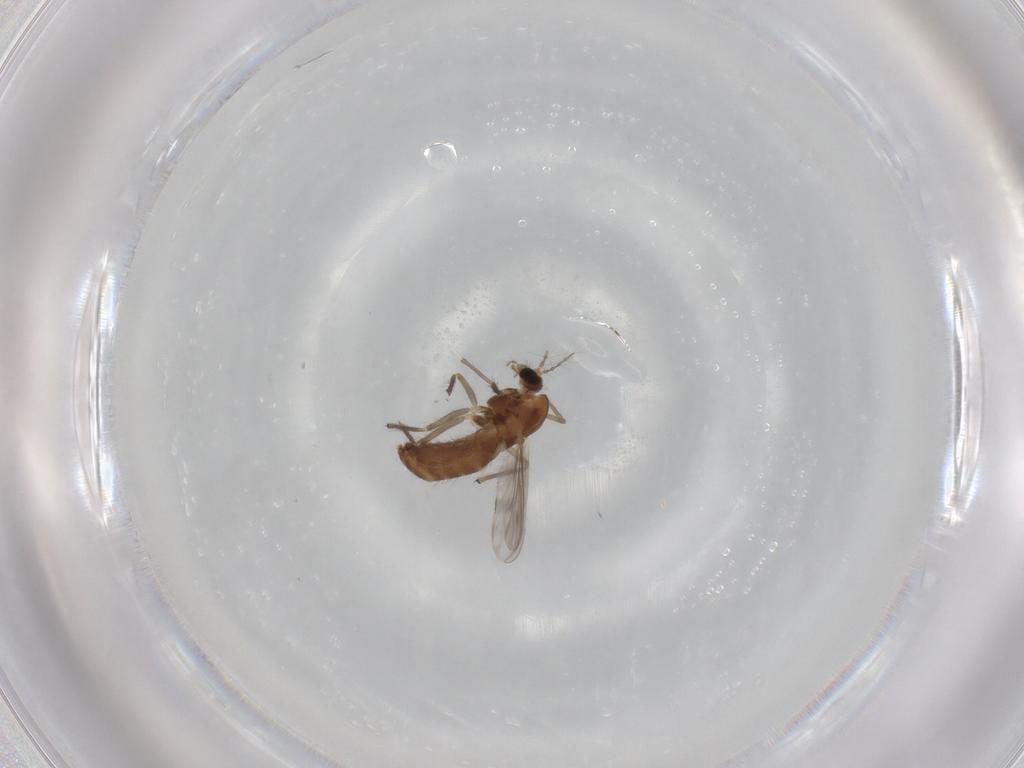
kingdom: Animalia
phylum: Arthropoda
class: Insecta
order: Diptera
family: Chironomidae
